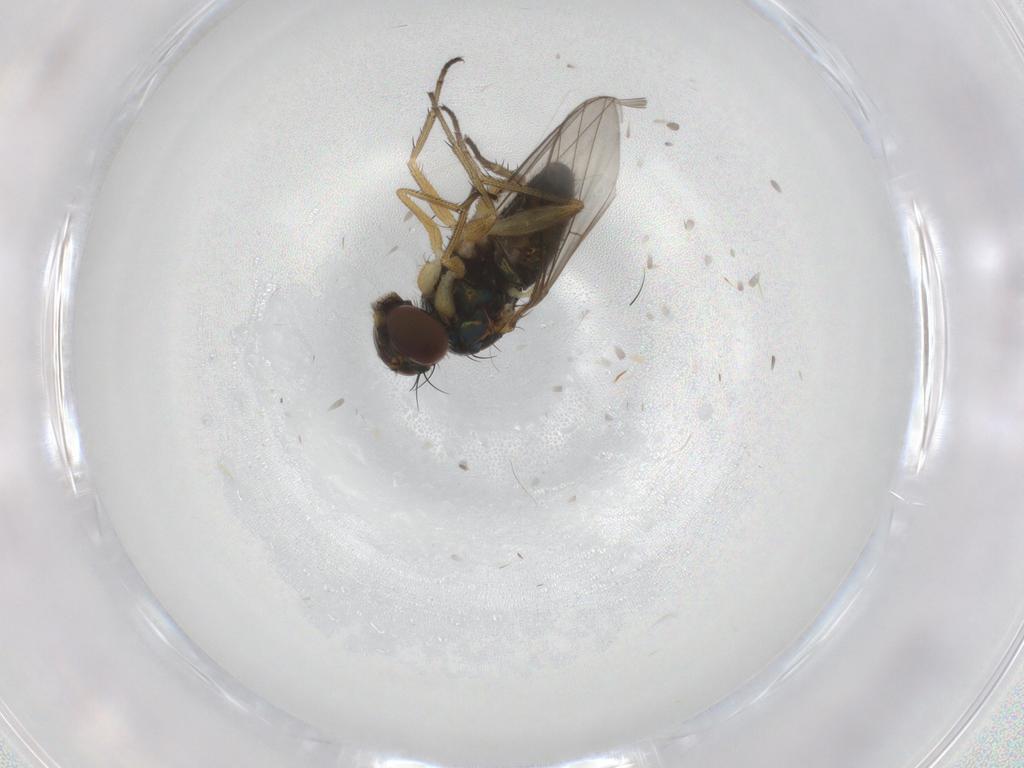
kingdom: Animalia
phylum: Arthropoda
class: Insecta
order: Diptera
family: Dolichopodidae
